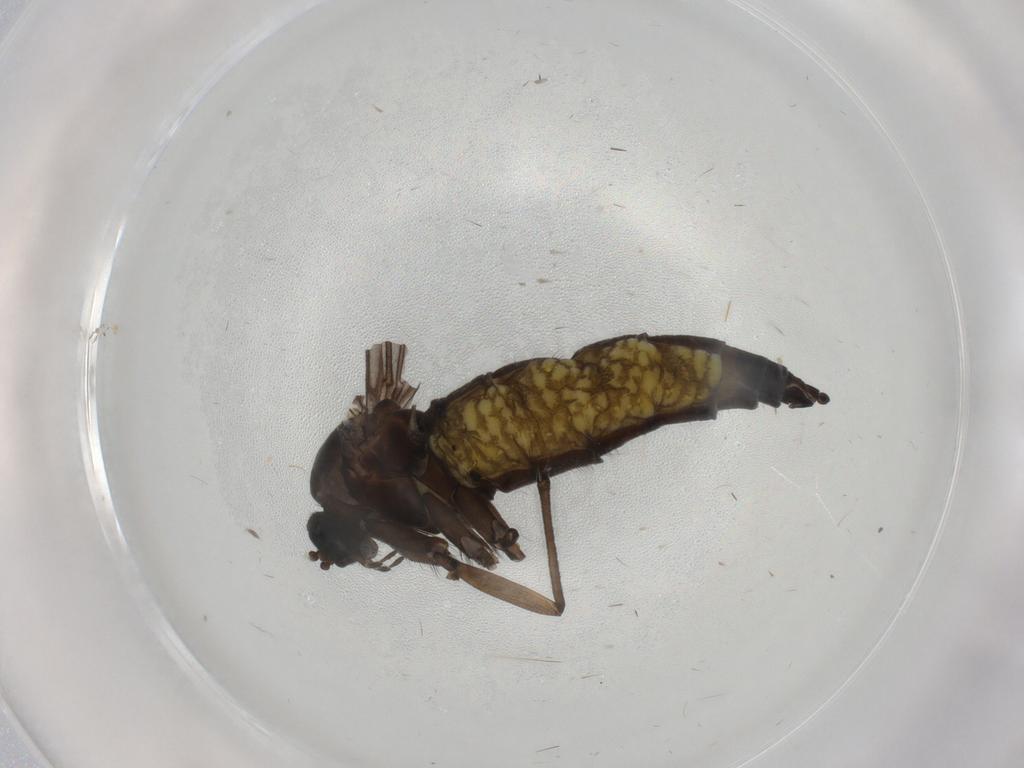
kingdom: Animalia
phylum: Arthropoda
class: Insecta
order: Diptera
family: Sciaridae
